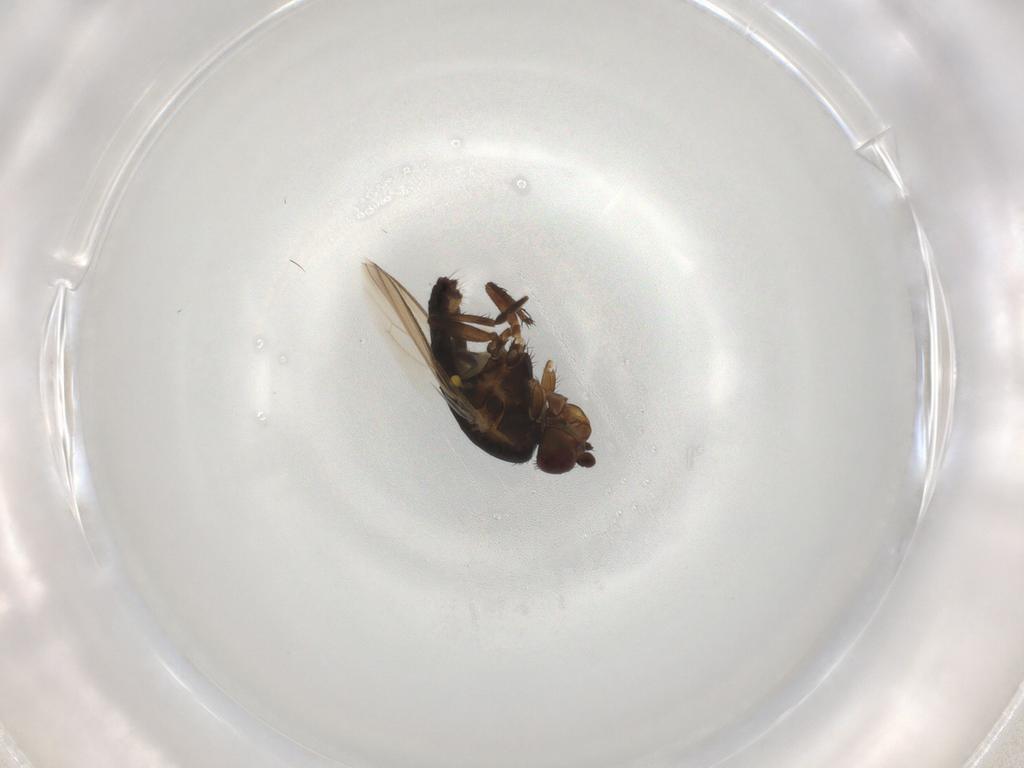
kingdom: Animalia
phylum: Arthropoda
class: Insecta
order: Diptera
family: Sphaeroceridae
